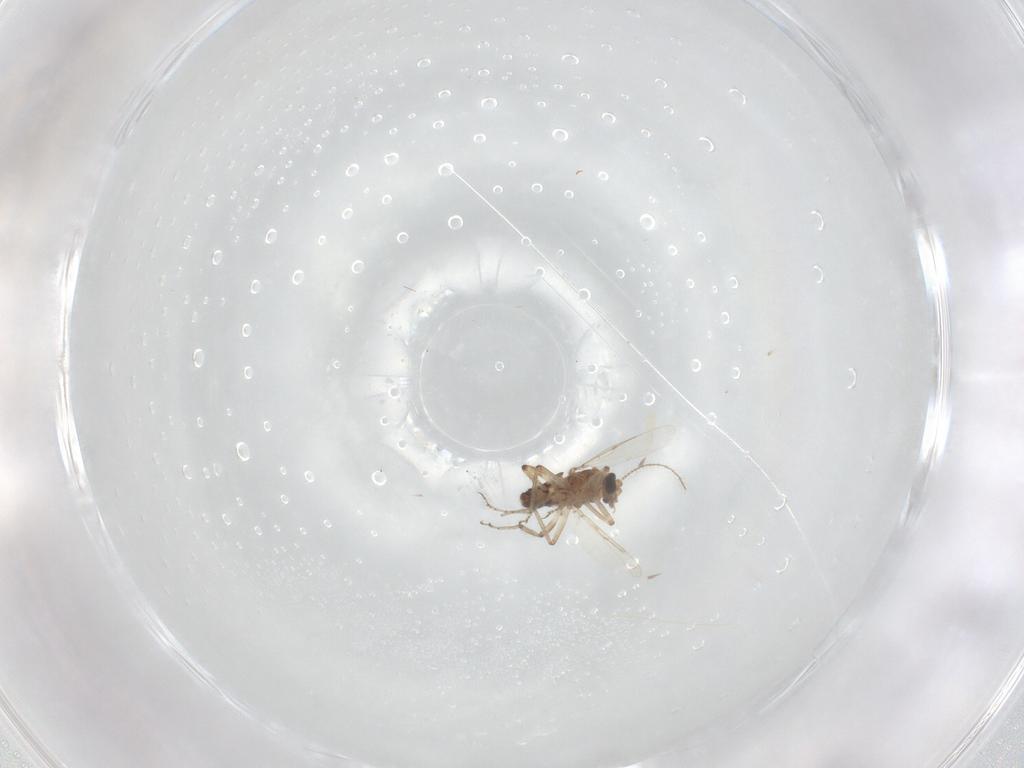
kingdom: Animalia
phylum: Arthropoda
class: Insecta
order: Diptera
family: Ceratopogonidae
